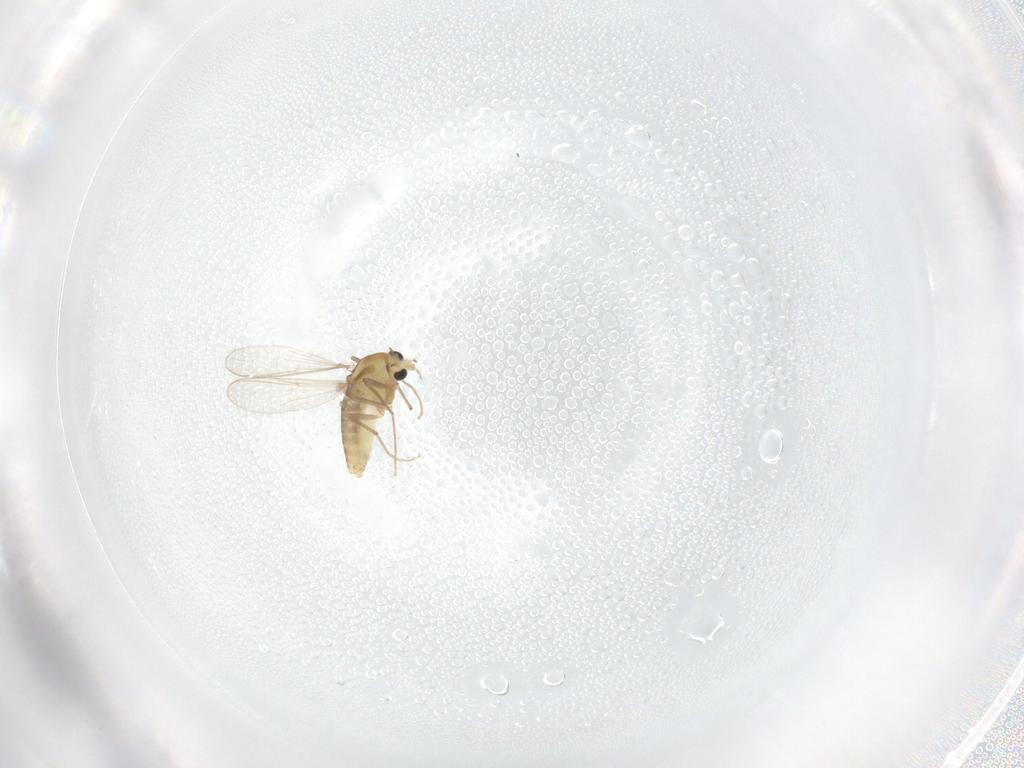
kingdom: Animalia
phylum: Arthropoda
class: Insecta
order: Diptera
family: Chironomidae
